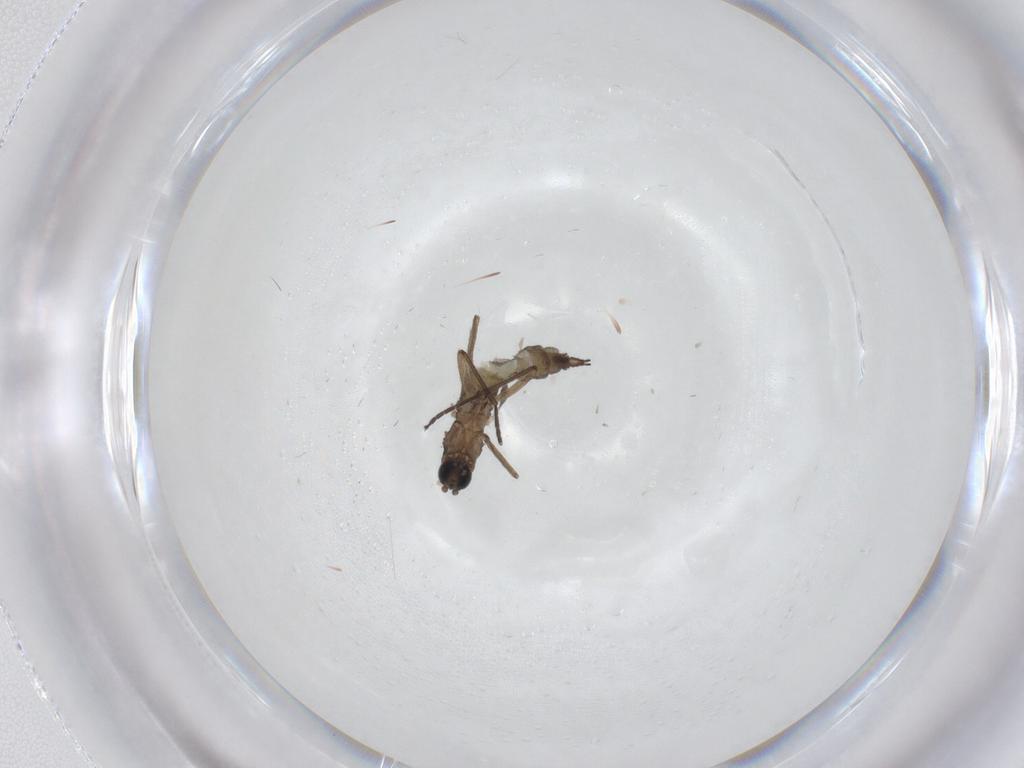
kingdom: Animalia
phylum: Arthropoda
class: Insecta
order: Diptera
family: Sciaridae
